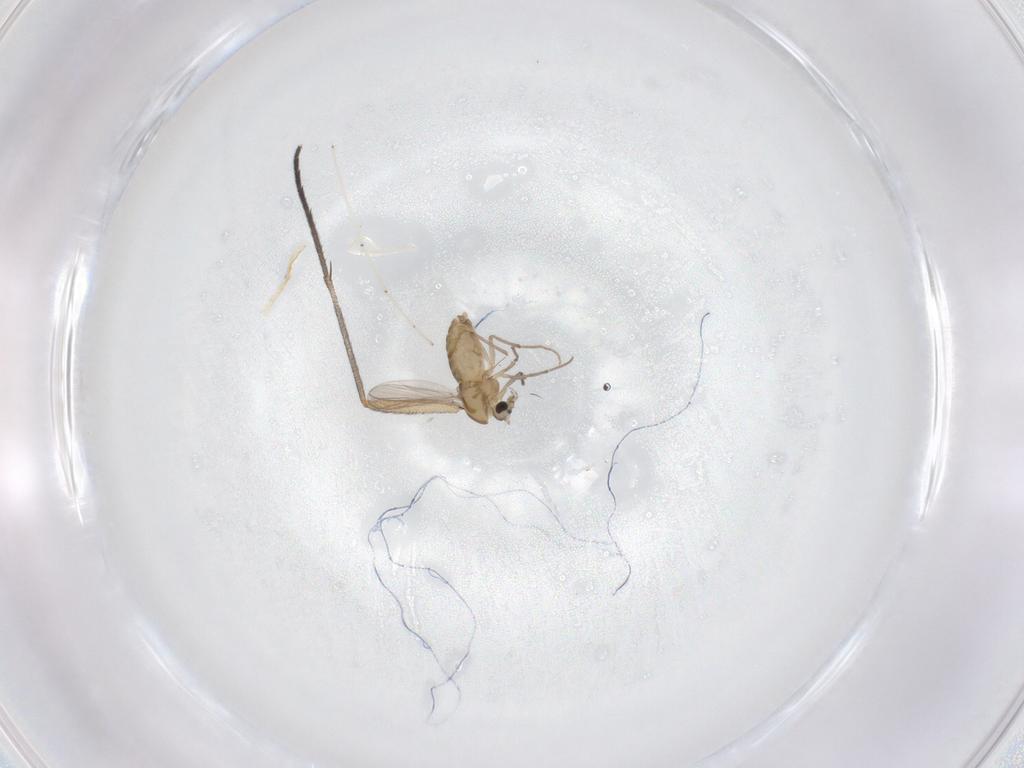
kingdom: Animalia
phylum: Arthropoda
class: Insecta
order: Diptera
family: Chironomidae
